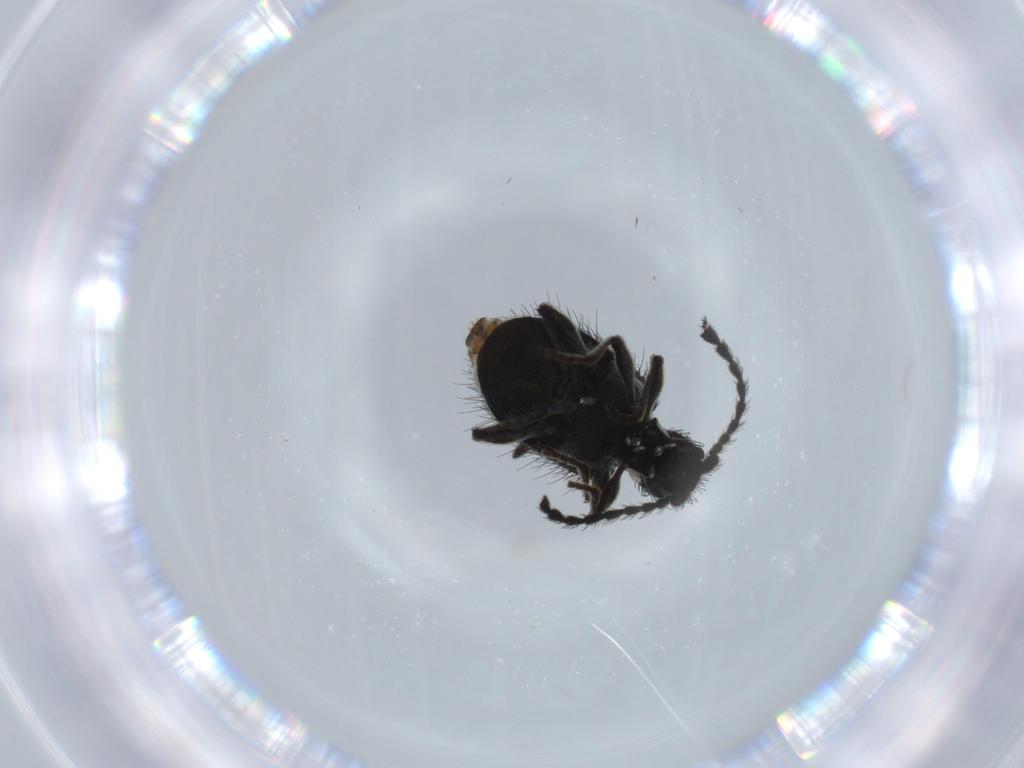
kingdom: Animalia
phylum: Arthropoda
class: Insecta
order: Coleoptera
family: Ptinidae
